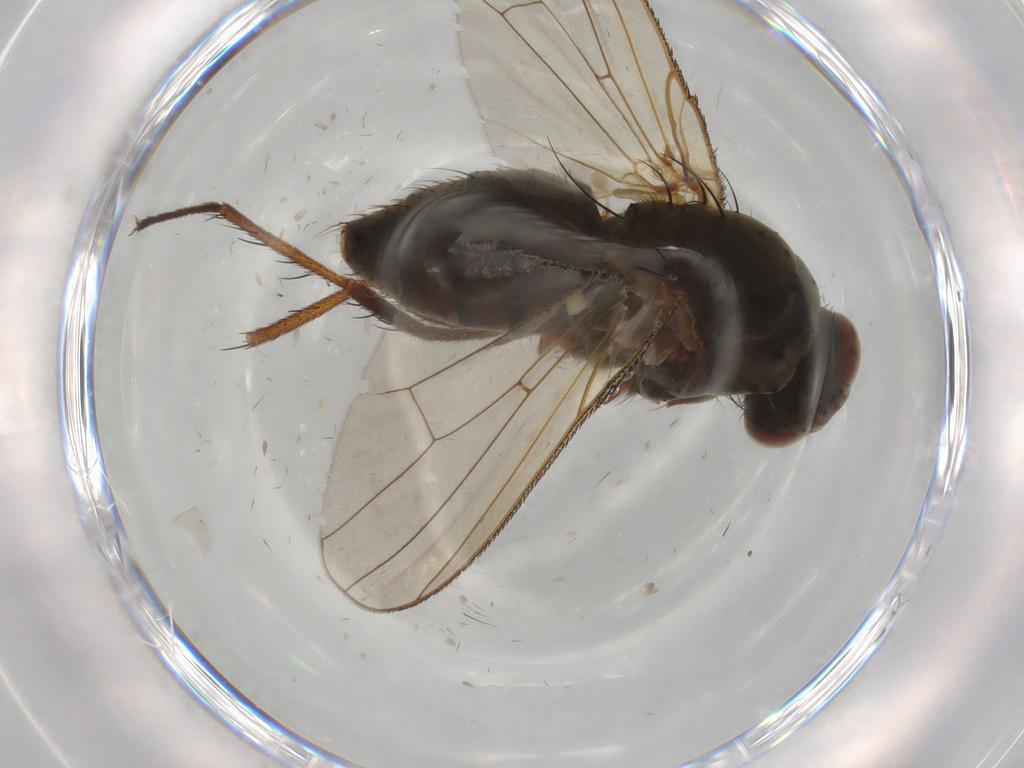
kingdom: Animalia
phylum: Arthropoda
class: Insecta
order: Diptera
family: Anthomyiidae
